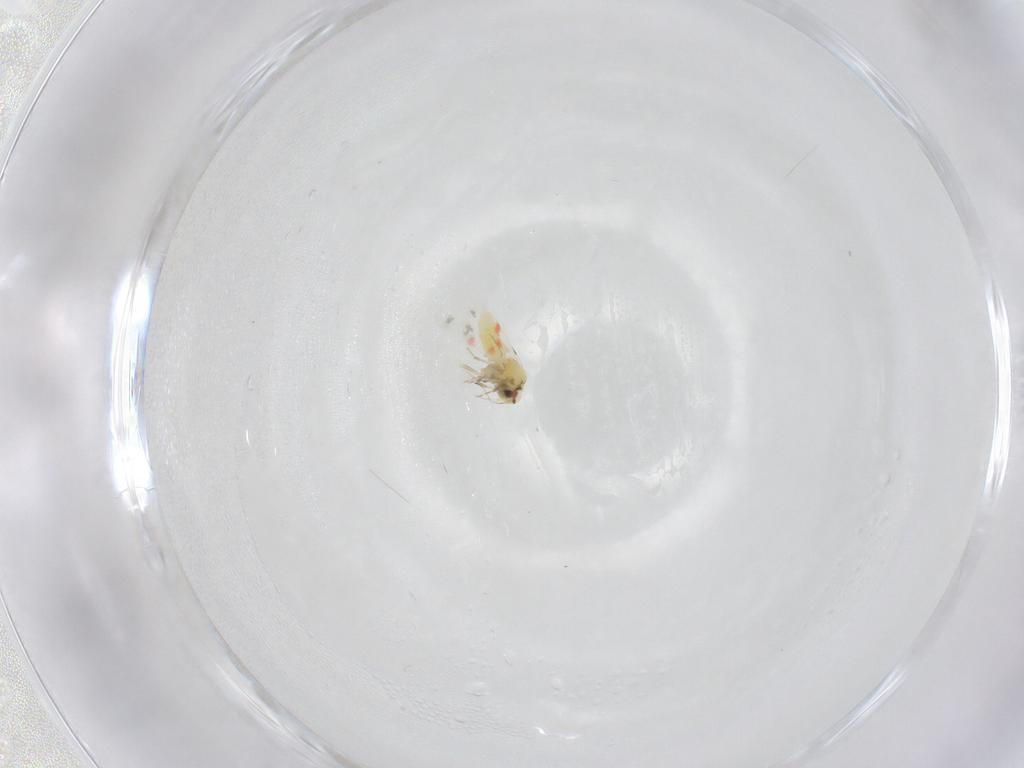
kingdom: Animalia
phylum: Arthropoda
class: Insecta
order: Hemiptera
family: Aleyrodidae
